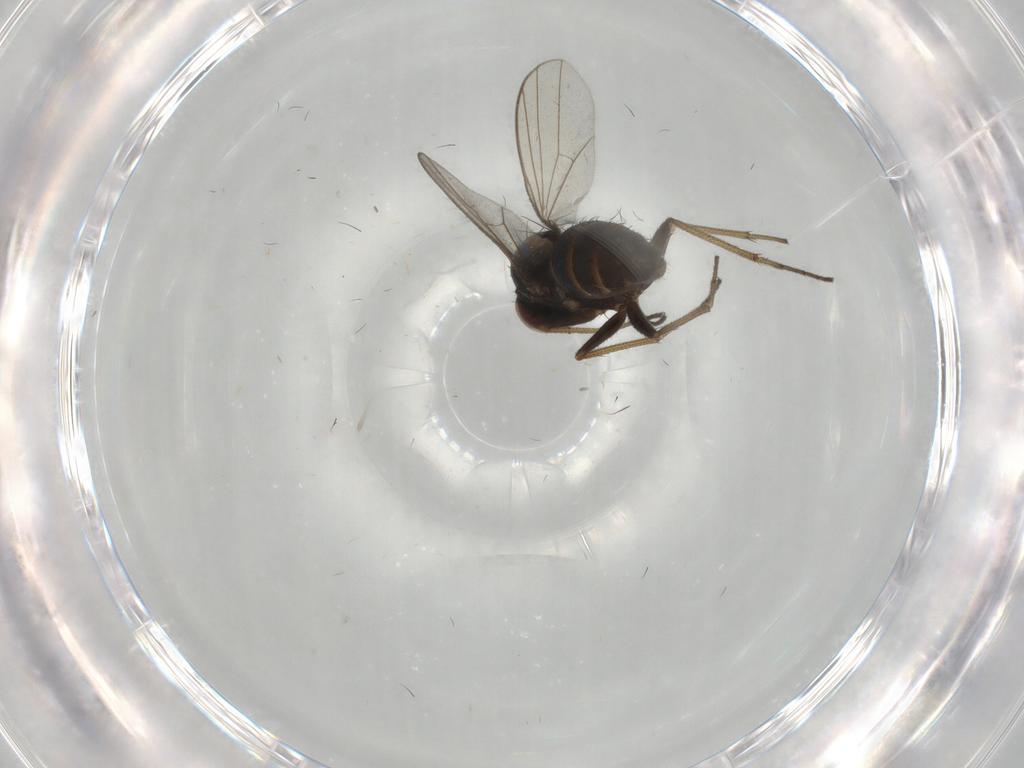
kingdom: Animalia
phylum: Arthropoda
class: Insecta
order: Diptera
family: Dolichopodidae
